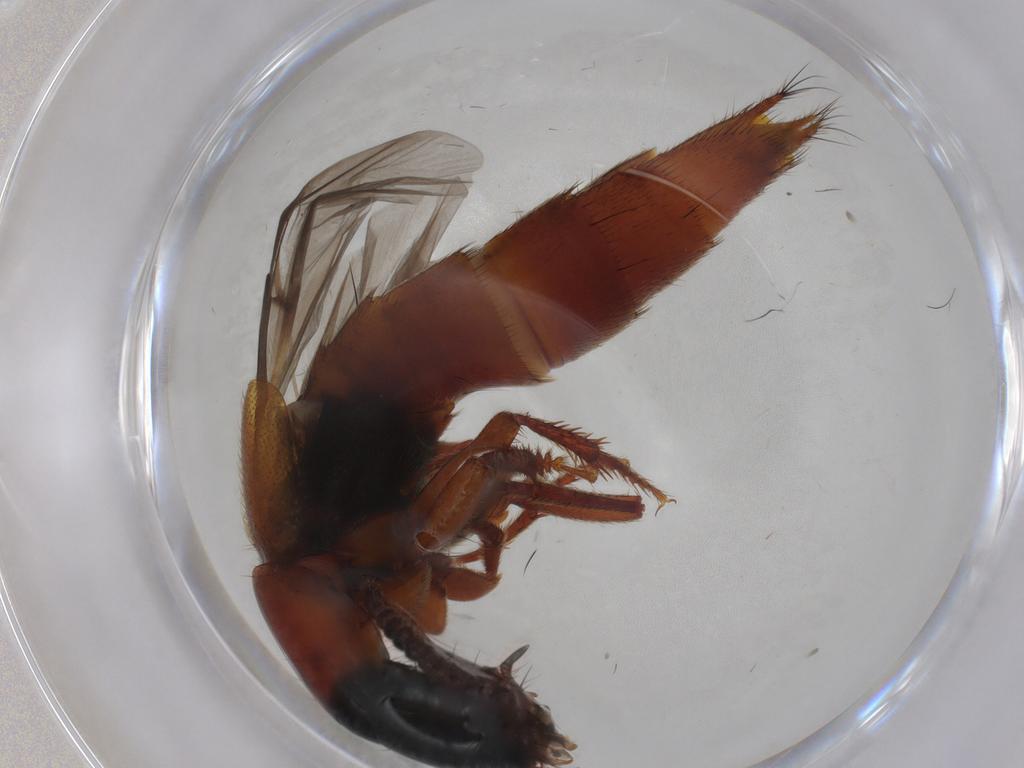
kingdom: Animalia
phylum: Arthropoda
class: Insecta
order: Coleoptera
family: Staphylinidae
